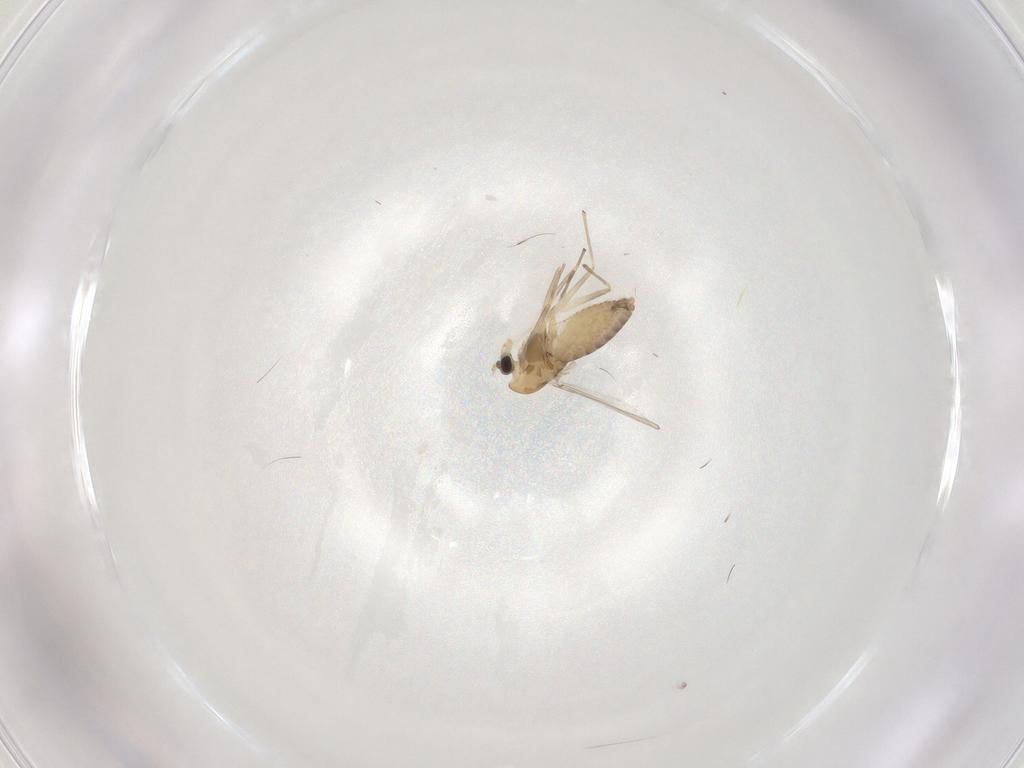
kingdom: Animalia
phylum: Arthropoda
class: Insecta
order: Diptera
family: Chironomidae
